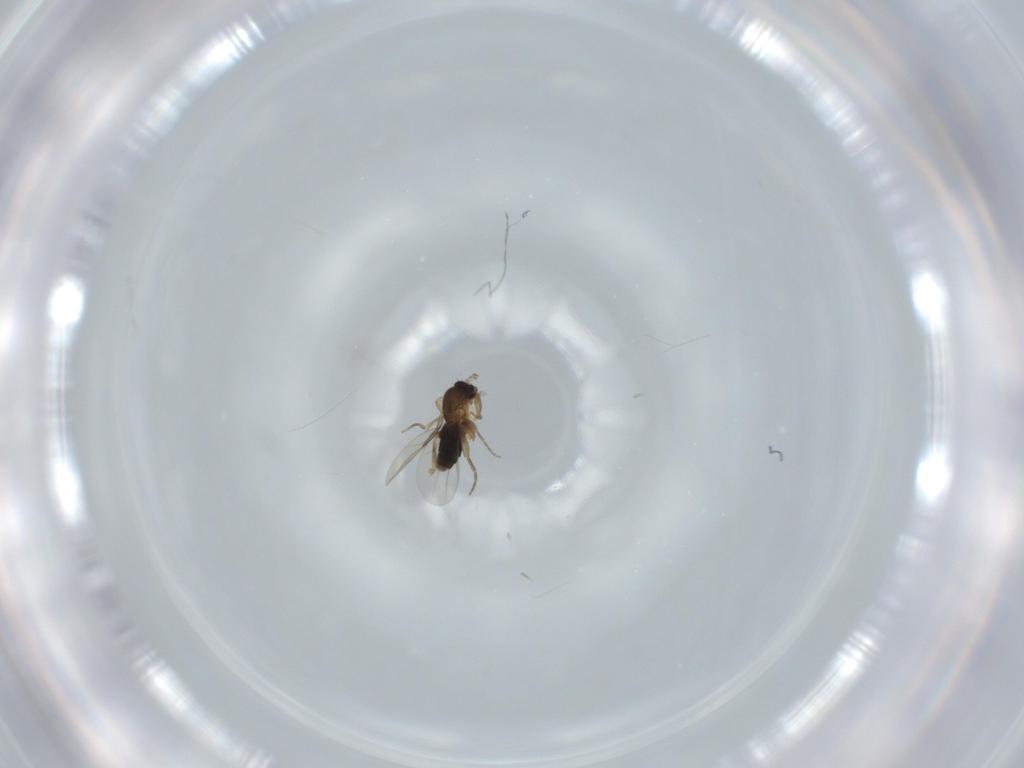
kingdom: Animalia
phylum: Arthropoda
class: Insecta
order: Diptera
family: Phoridae
